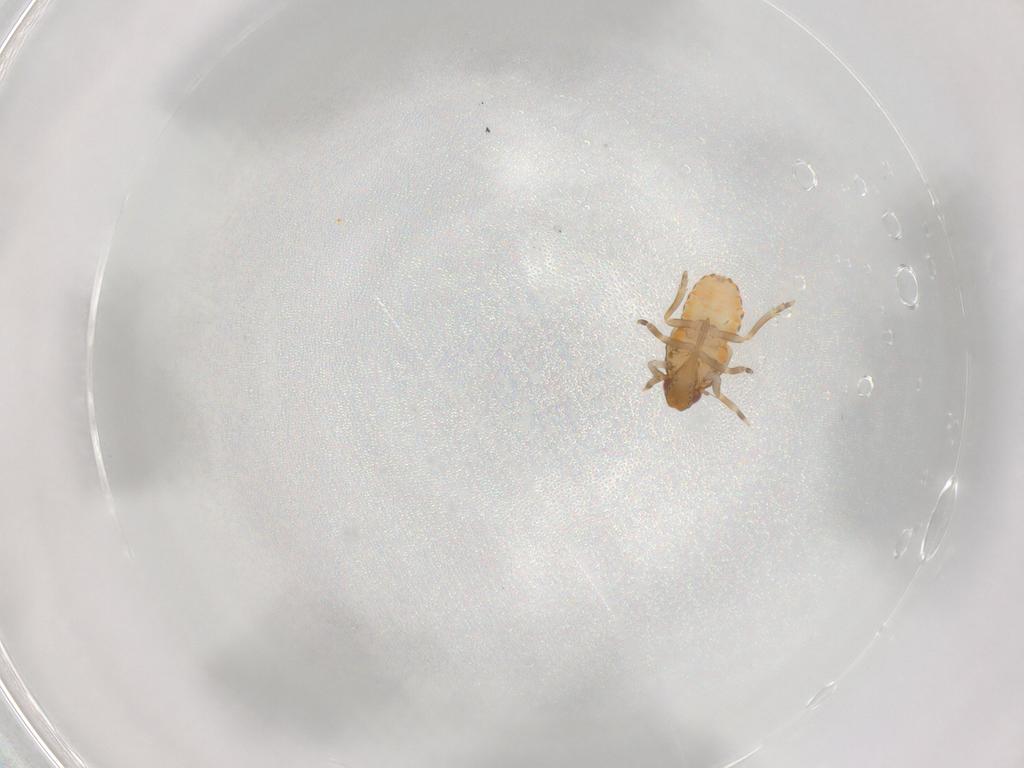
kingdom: Animalia
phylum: Arthropoda
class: Insecta
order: Hemiptera
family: Flatidae
